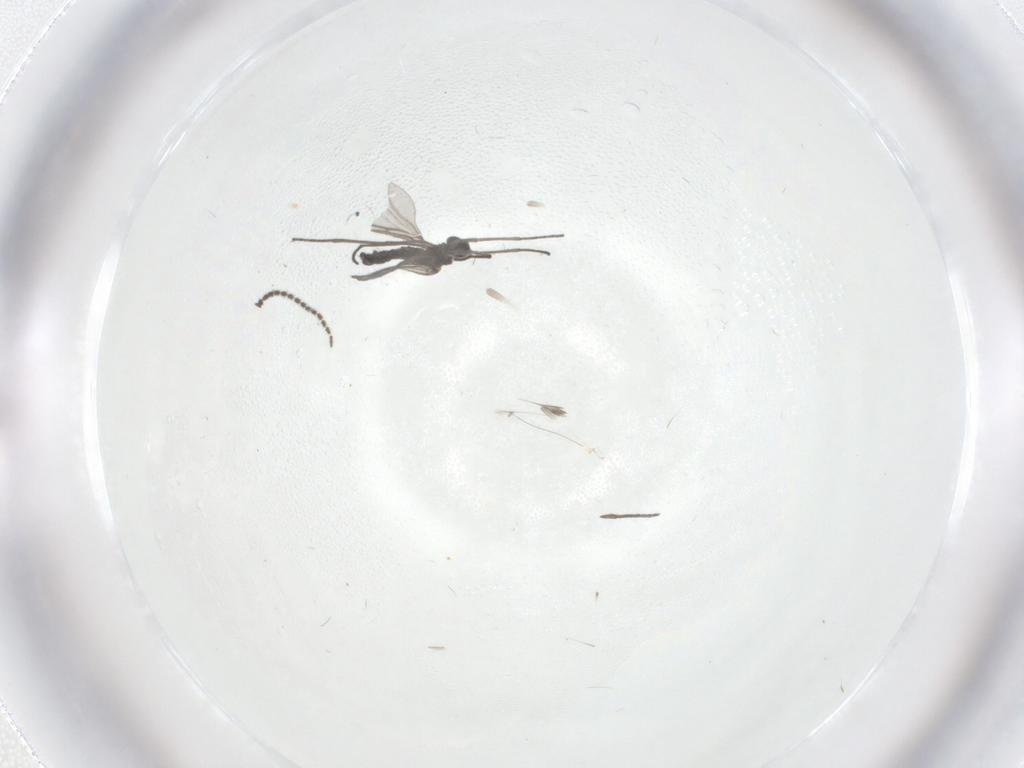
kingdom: Animalia
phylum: Arthropoda
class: Insecta
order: Diptera
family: Sciaridae
